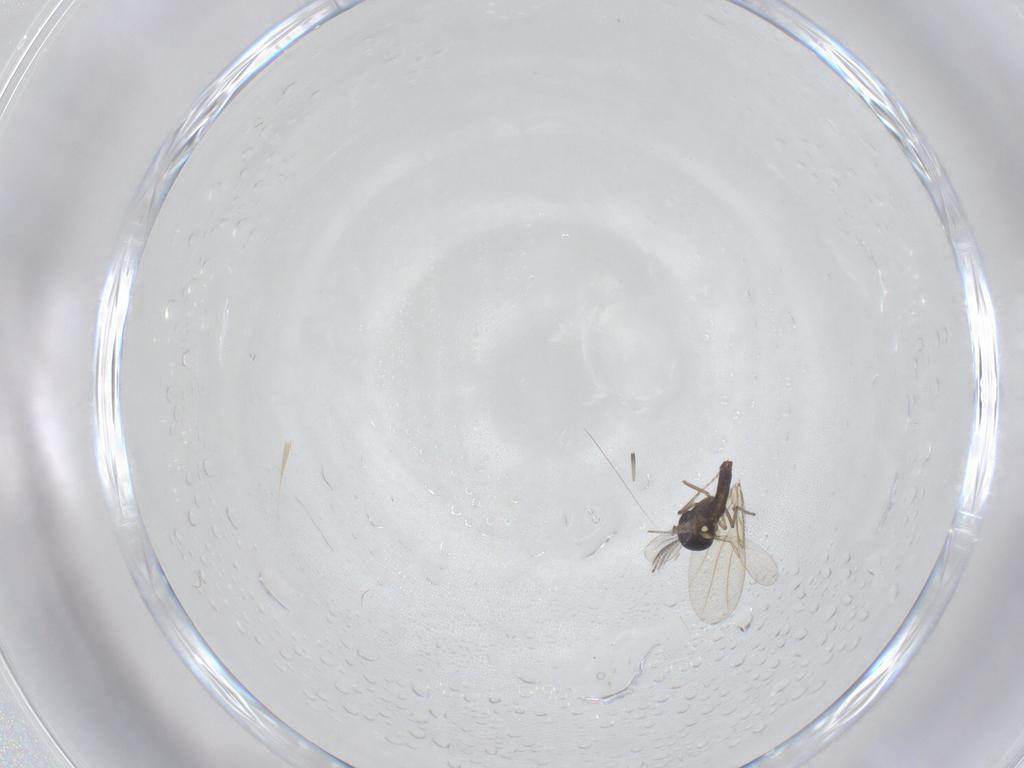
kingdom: Animalia
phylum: Arthropoda
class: Insecta
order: Diptera
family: Ceratopogonidae
